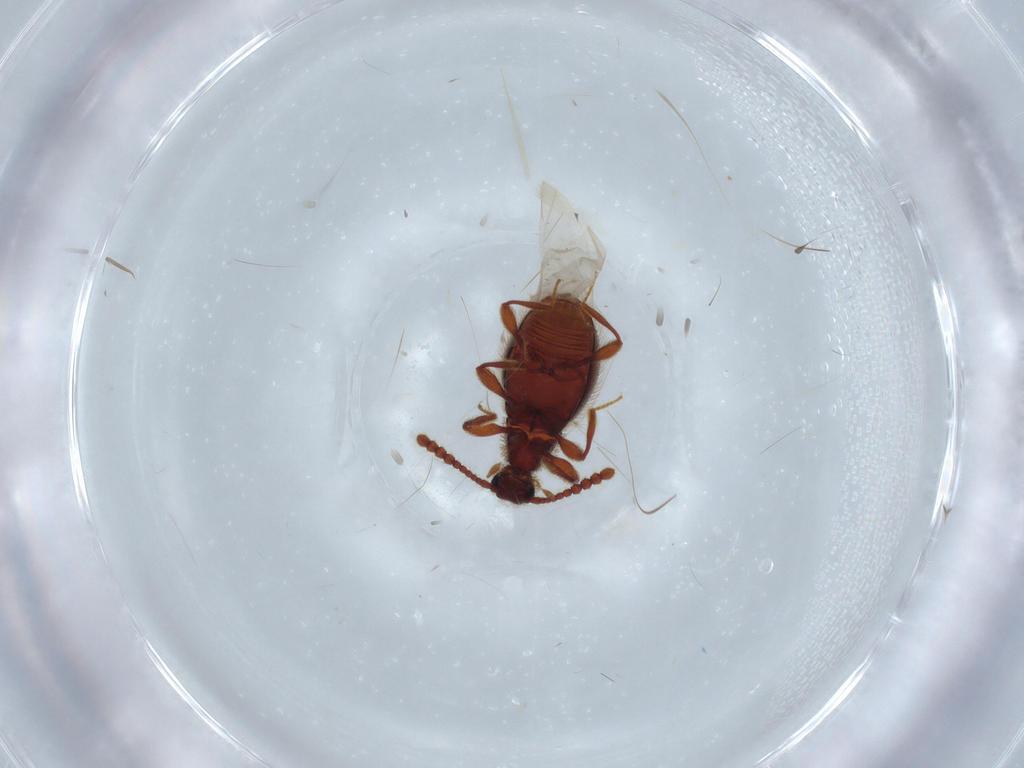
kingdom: Animalia
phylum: Arthropoda
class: Insecta
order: Coleoptera
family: Staphylinidae
